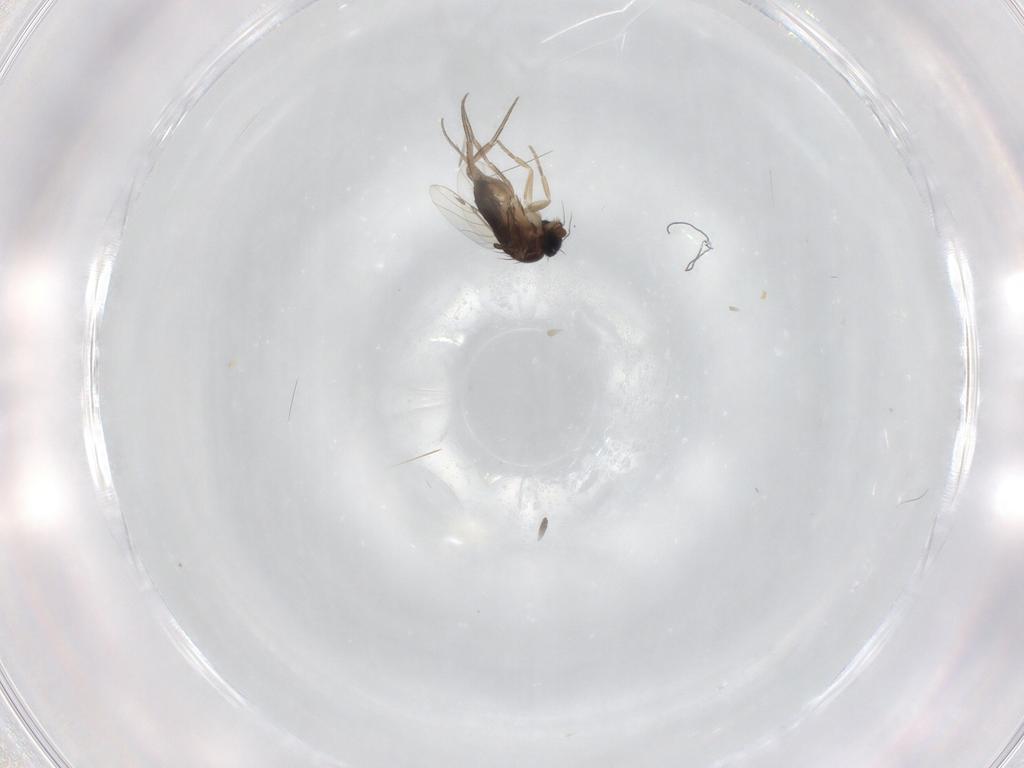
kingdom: Animalia
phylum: Arthropoda
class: Insecta
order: Diptera
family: Phoridae
